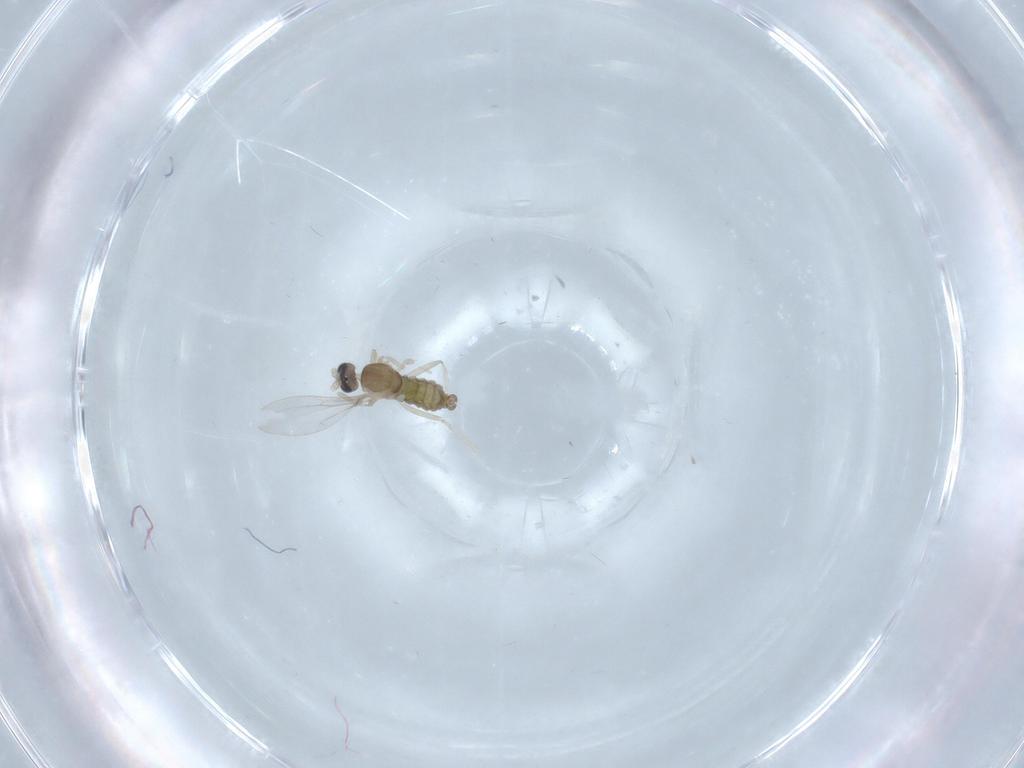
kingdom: Animalia
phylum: Arthropoda
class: Insecta
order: Diptera
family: Cecidomyiidae
